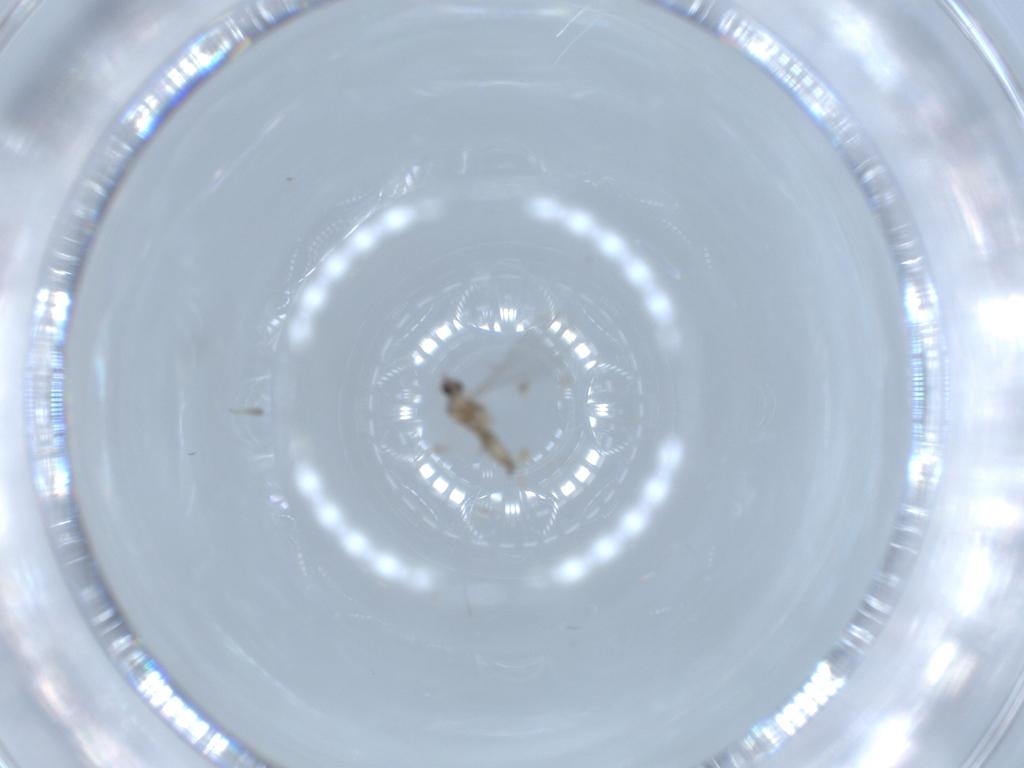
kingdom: Animalia
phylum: Arthropoda
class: Insecta
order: Diptera
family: Cecidomyiidae
